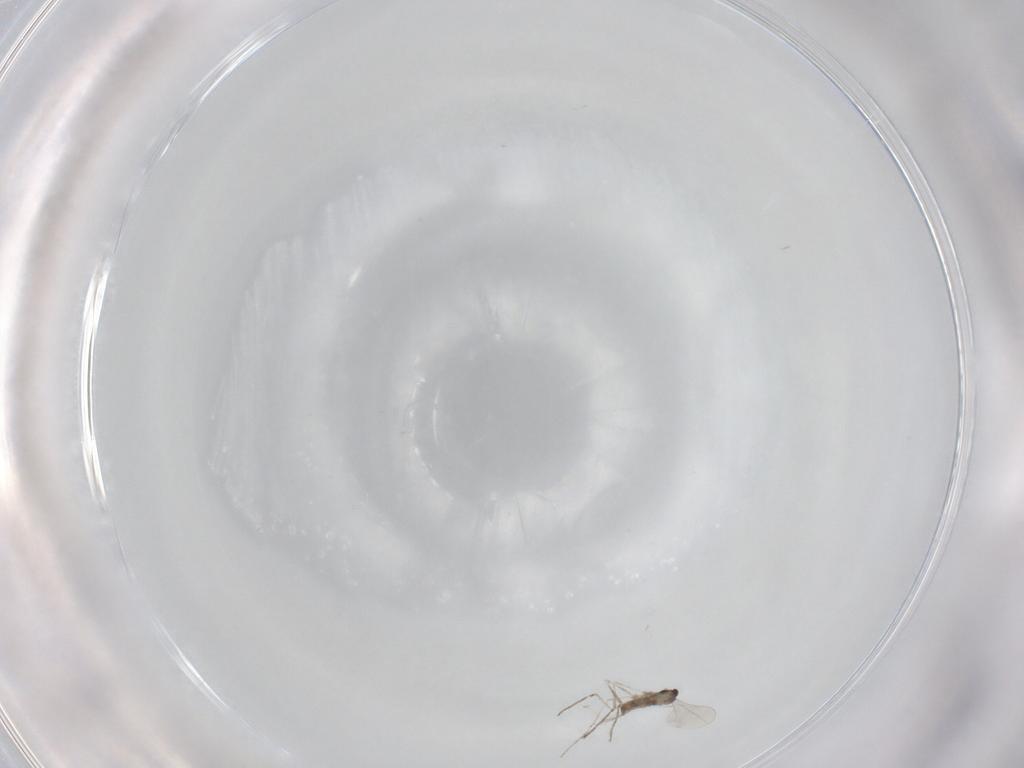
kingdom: Animalia
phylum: Arthropoda
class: Insecta
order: Diptera
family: Cecidomyiidae
